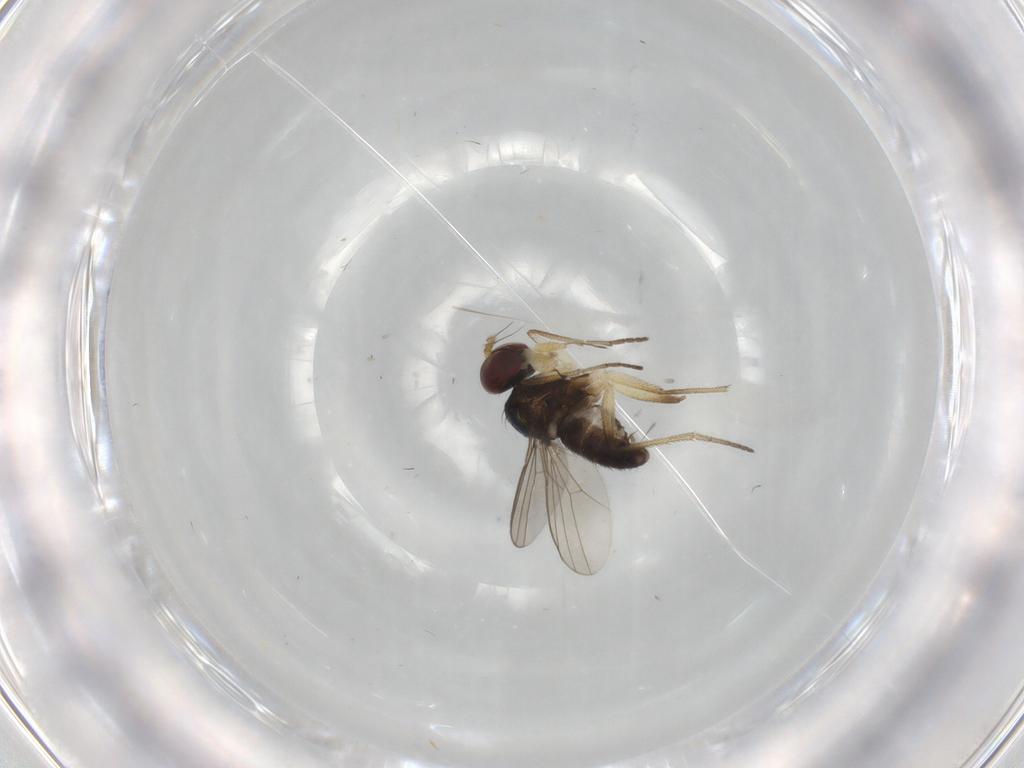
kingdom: Animalia
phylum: Arthropoda
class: Insecta
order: Diptera
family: Dolichopodidae
